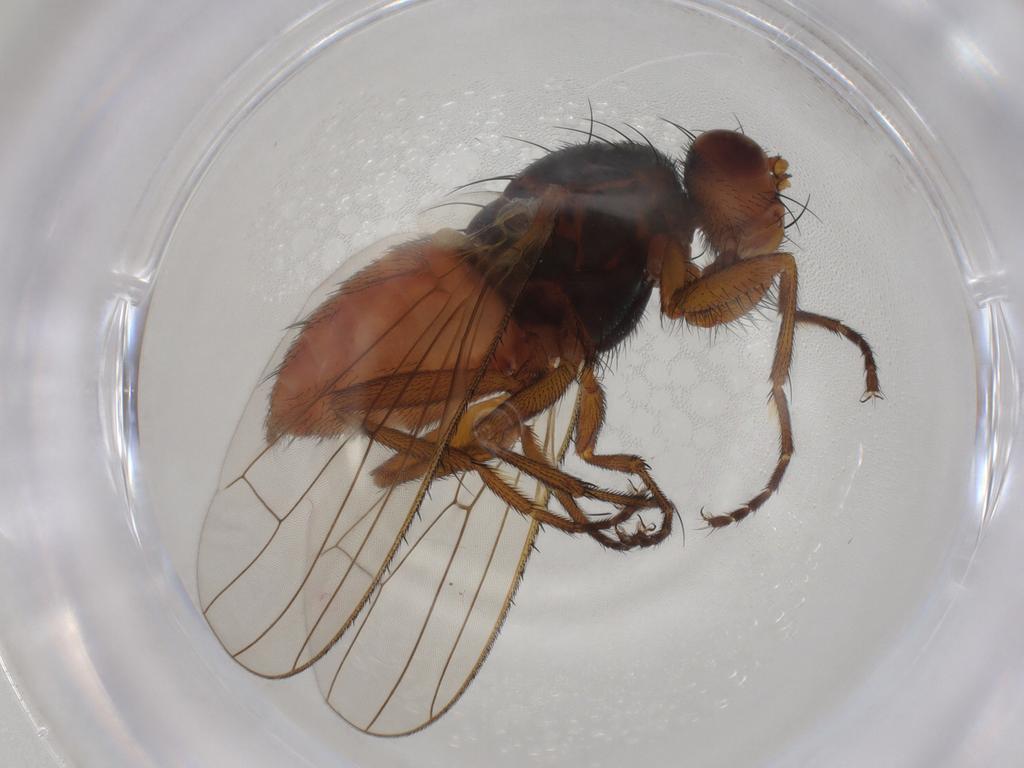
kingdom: Animalia
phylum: Arthropoda
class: Insecta
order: Diptera
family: Heleomyzidae
